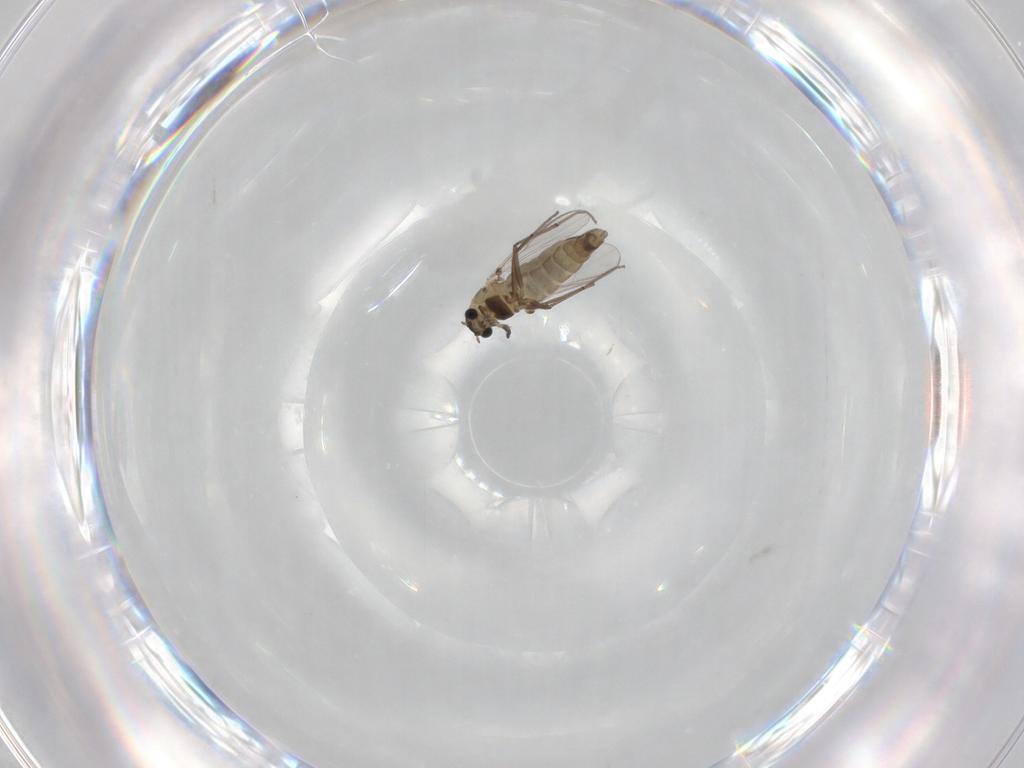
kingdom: Animalia
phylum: Arthropoda
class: Insecta
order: Diptera
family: Chironomidae
